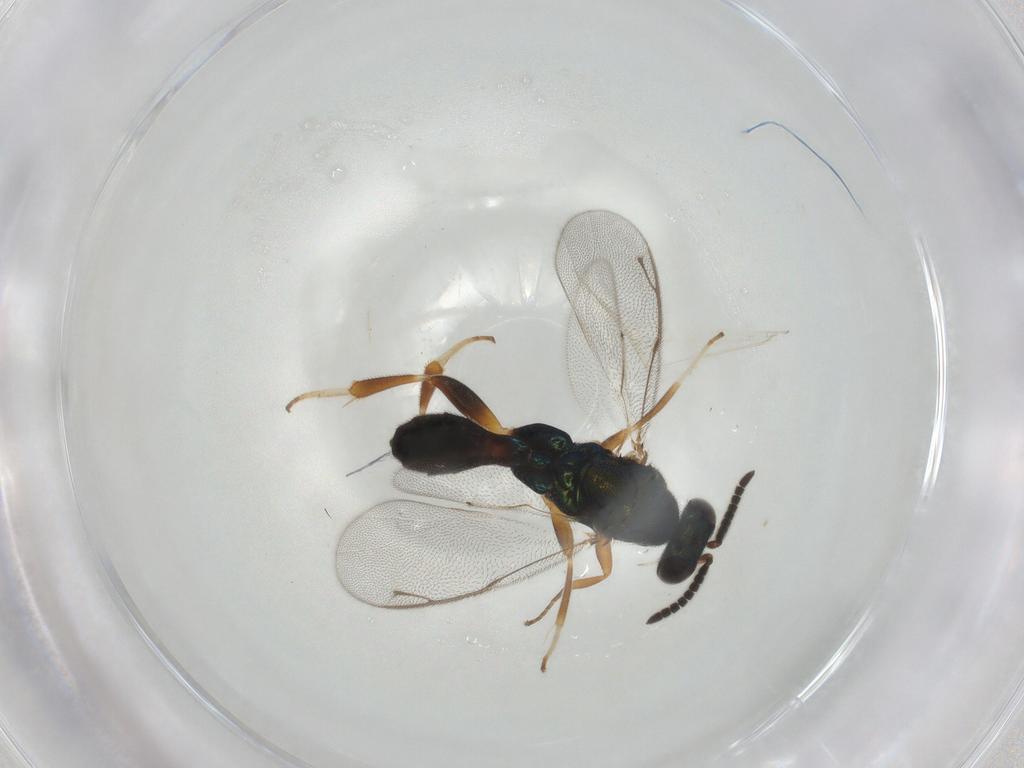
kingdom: Animalia
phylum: Arthropoda
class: Insecta
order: Hymenoptera
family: Cleonyminae
